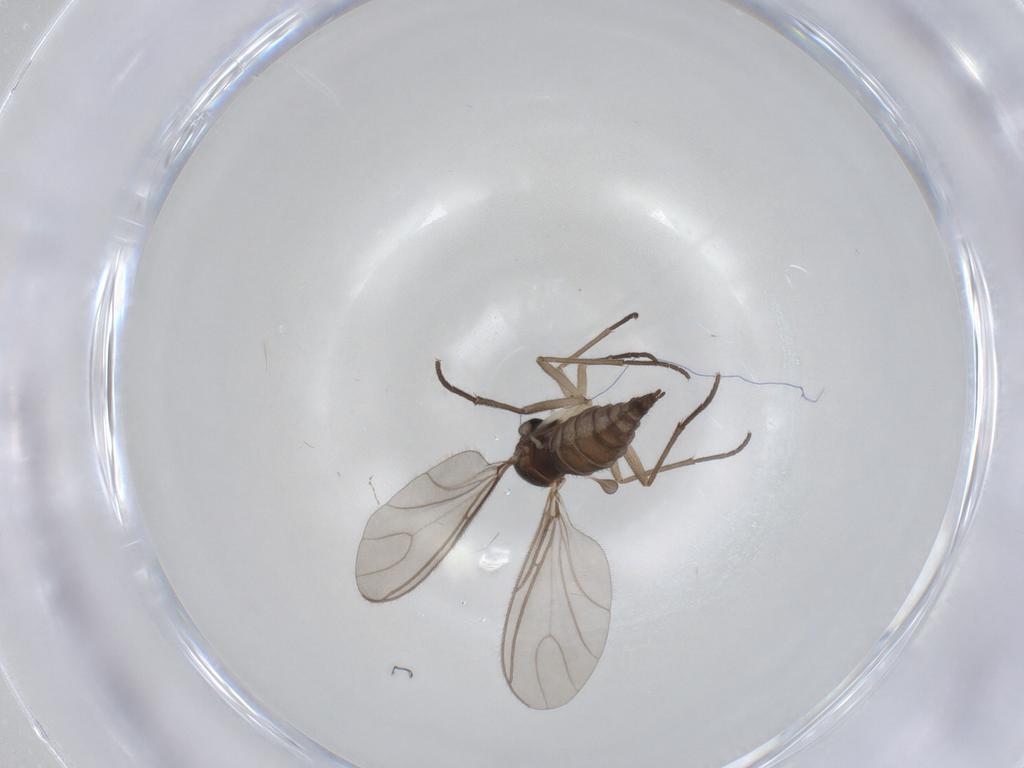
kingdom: Animalia
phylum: Arthropoda
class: Insecta
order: Diptera
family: Sciaridae
